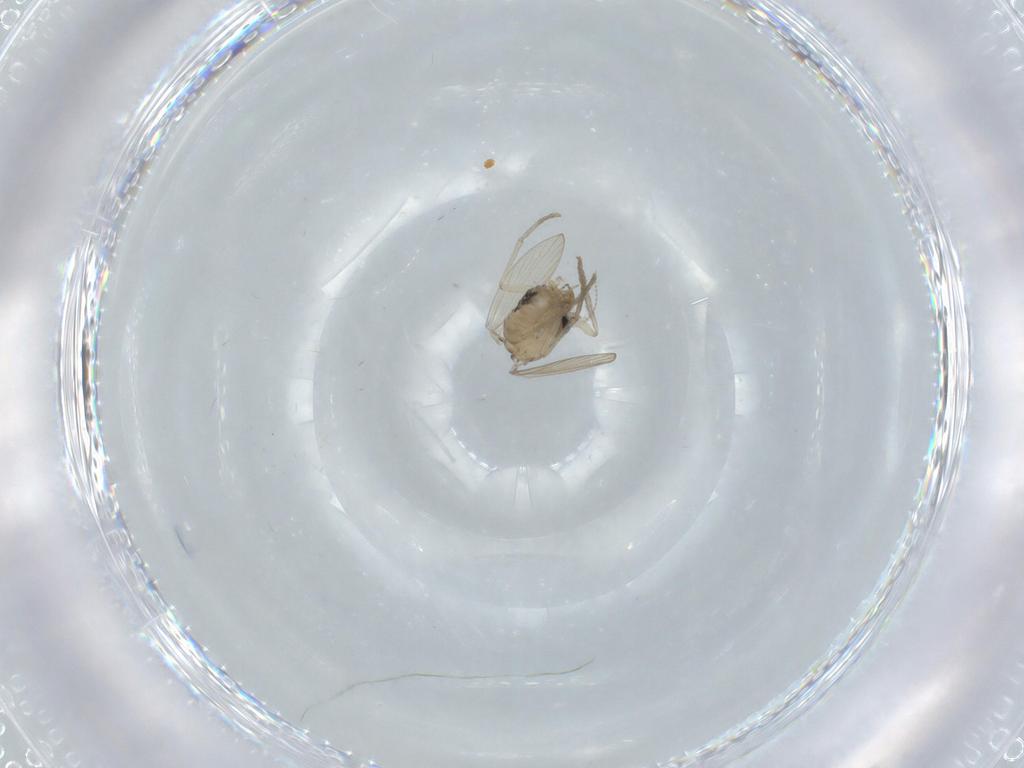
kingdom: Animalia
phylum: Arthropoda
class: Insecta
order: Diptera
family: Psychodidae
